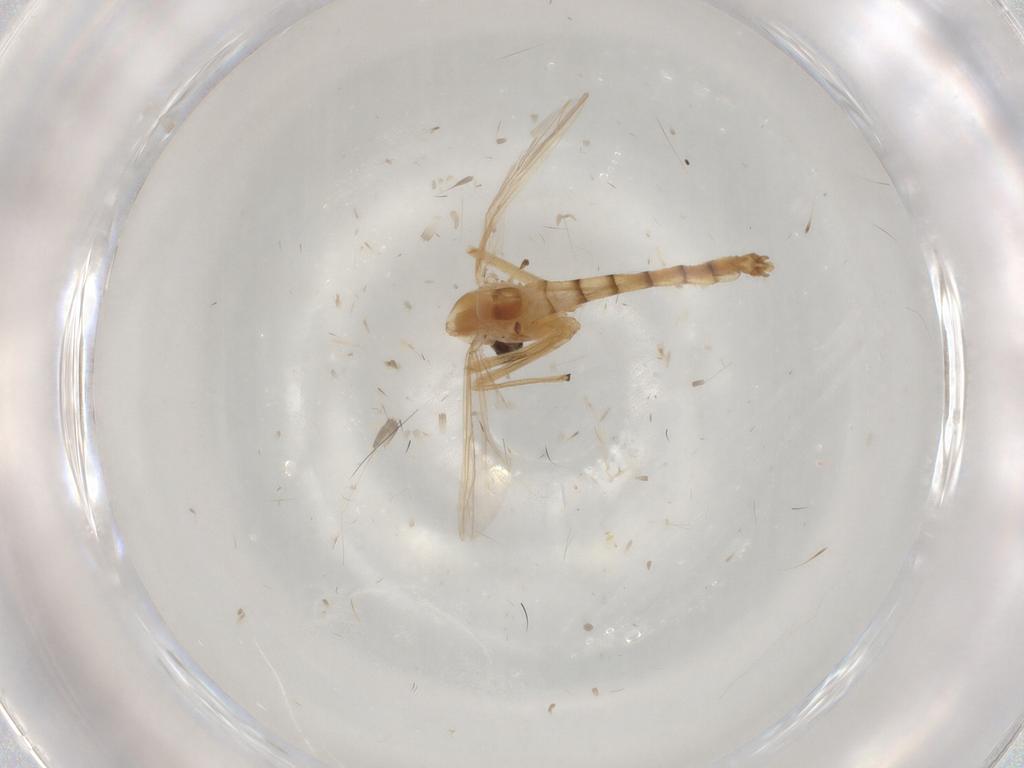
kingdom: Animalia
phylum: Arthropoda
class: Insecta
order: Diptera
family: Chironomidae
